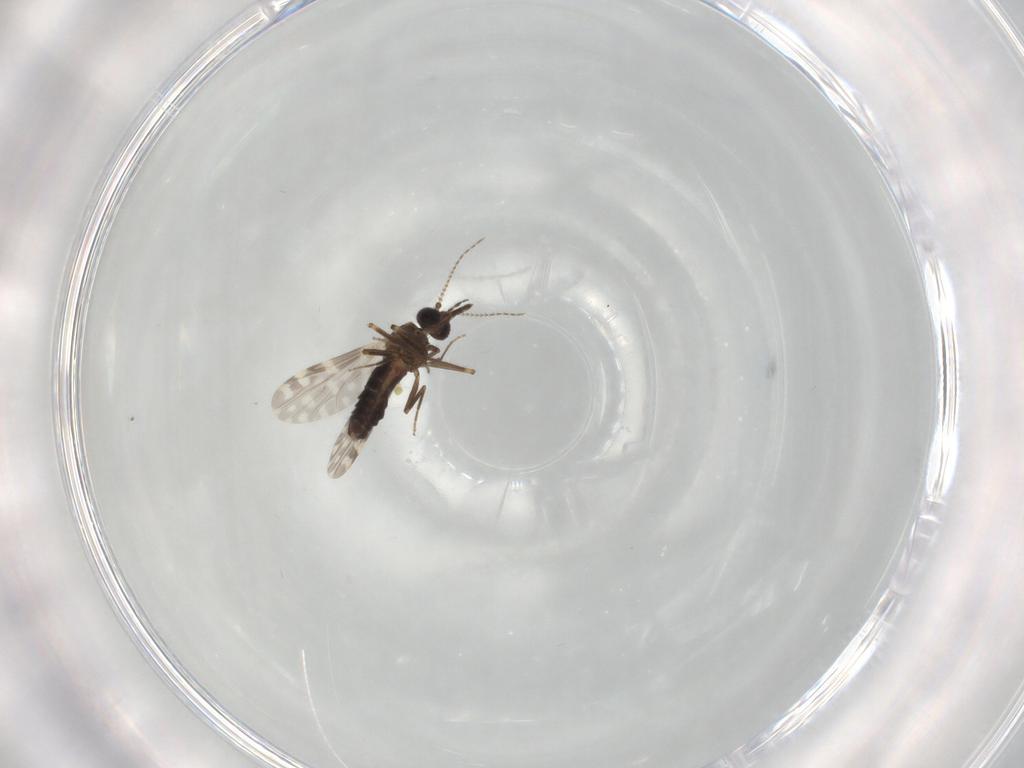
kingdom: Animalia
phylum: Arthropoda
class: Insecta
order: Diptera
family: Ceratopogonidae
